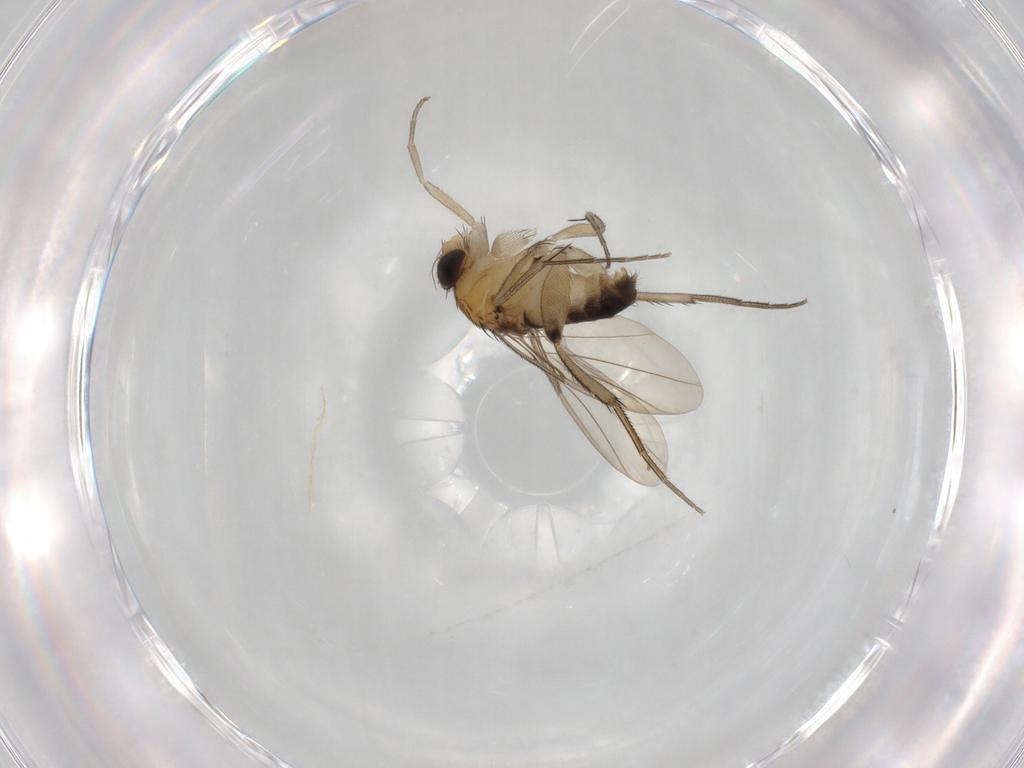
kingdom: Animalia
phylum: Arthropoda
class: Insecta
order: Diptera
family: Phoridae
